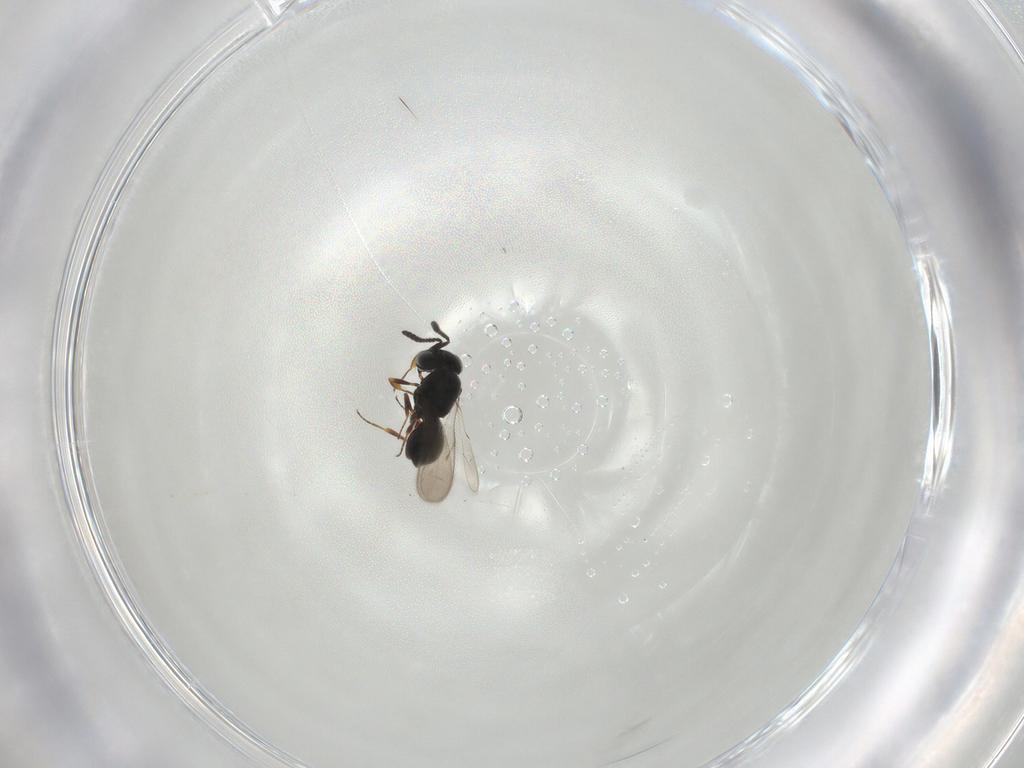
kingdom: Animalia
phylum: Arthropoda
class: Insecta
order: Hymenoptera
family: Scelionidae
